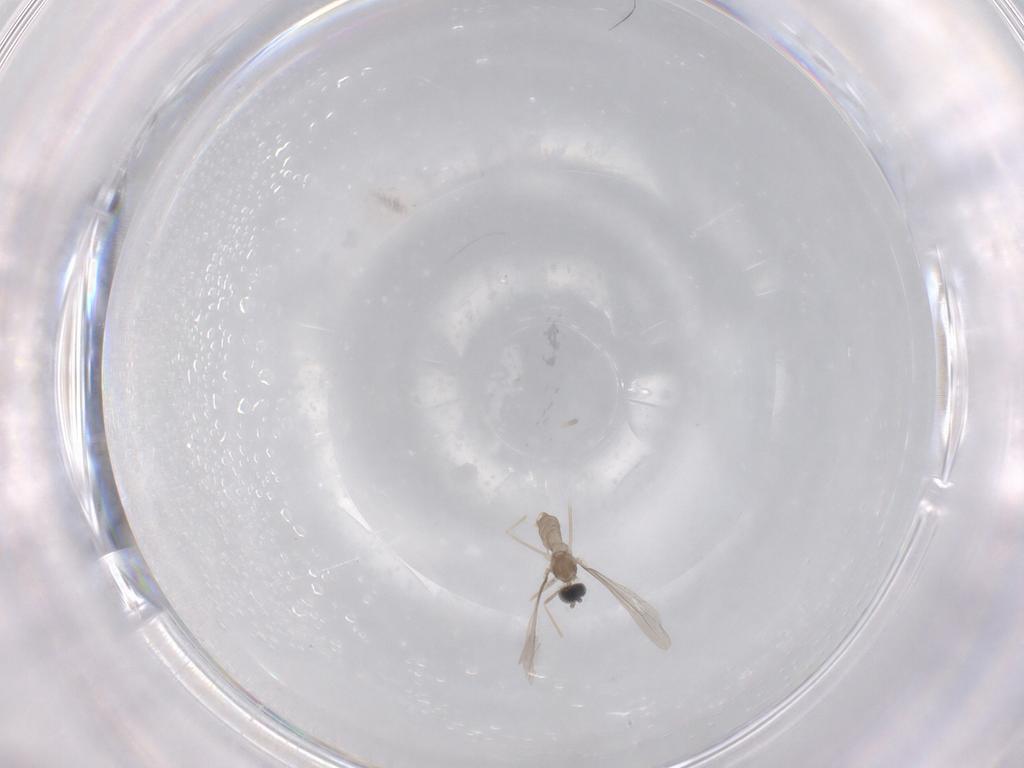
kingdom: Animalia
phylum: Arthropoda
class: Insecta
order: Diptera
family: Cecidomyiidae
